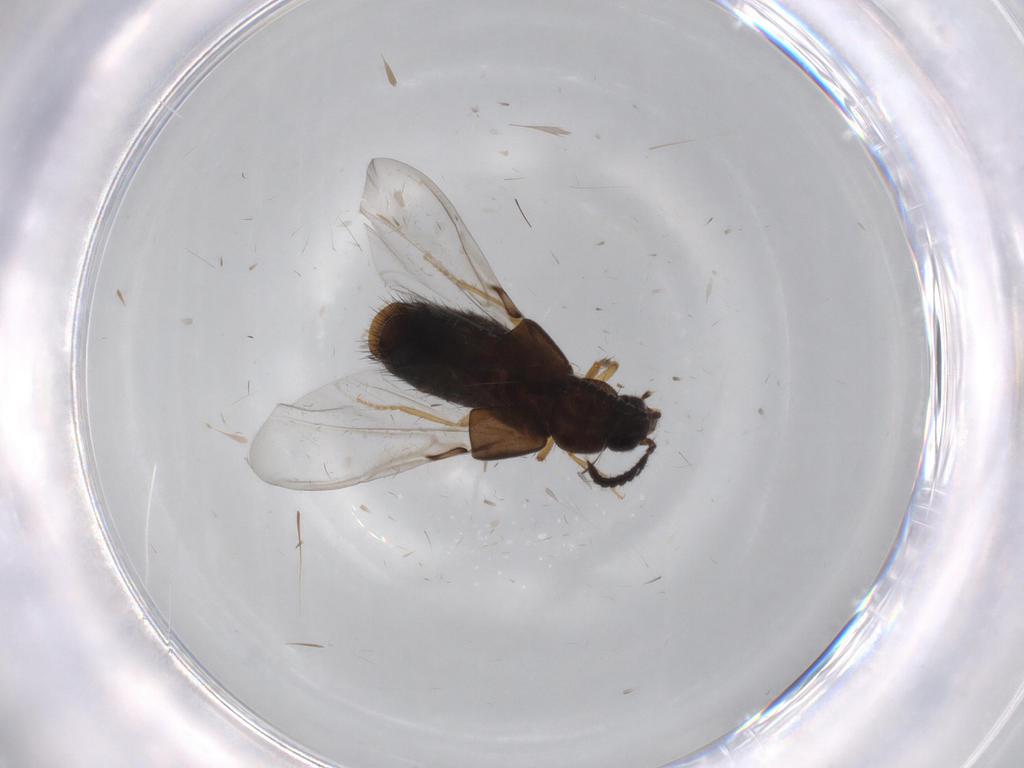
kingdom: Animalia
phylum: Arthropoda
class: Insecta
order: Coleoptera
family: Staphylinidae
